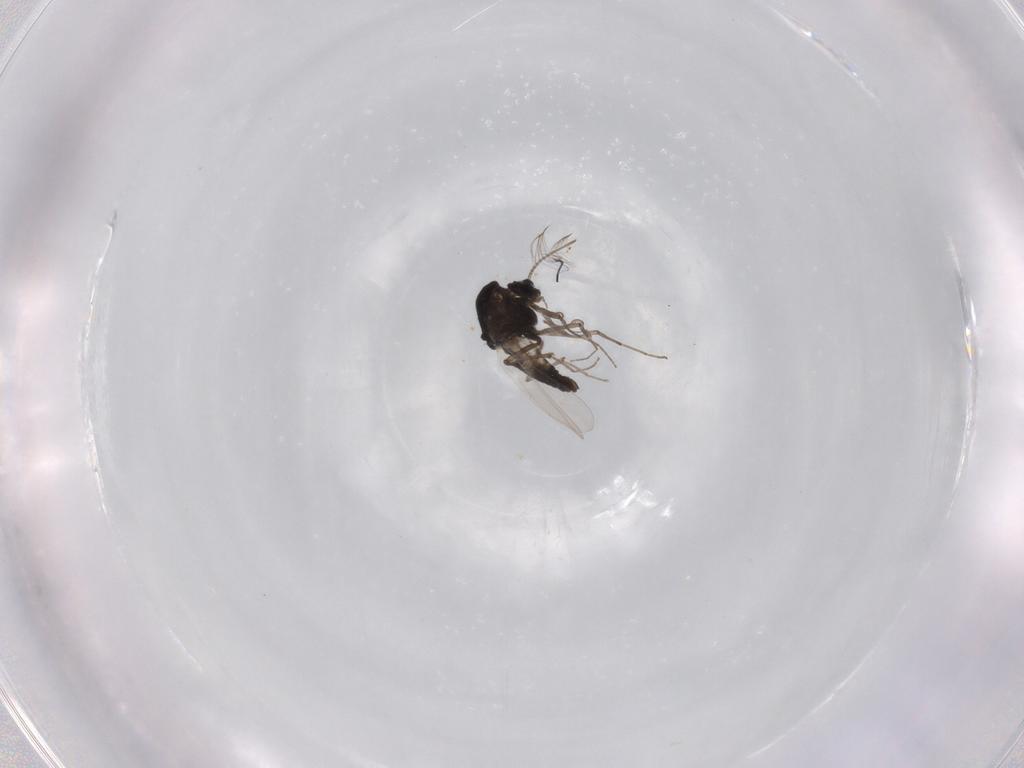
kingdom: Animalia
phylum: Arthropoda
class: Insecta
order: Diptera
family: Chironomidae
